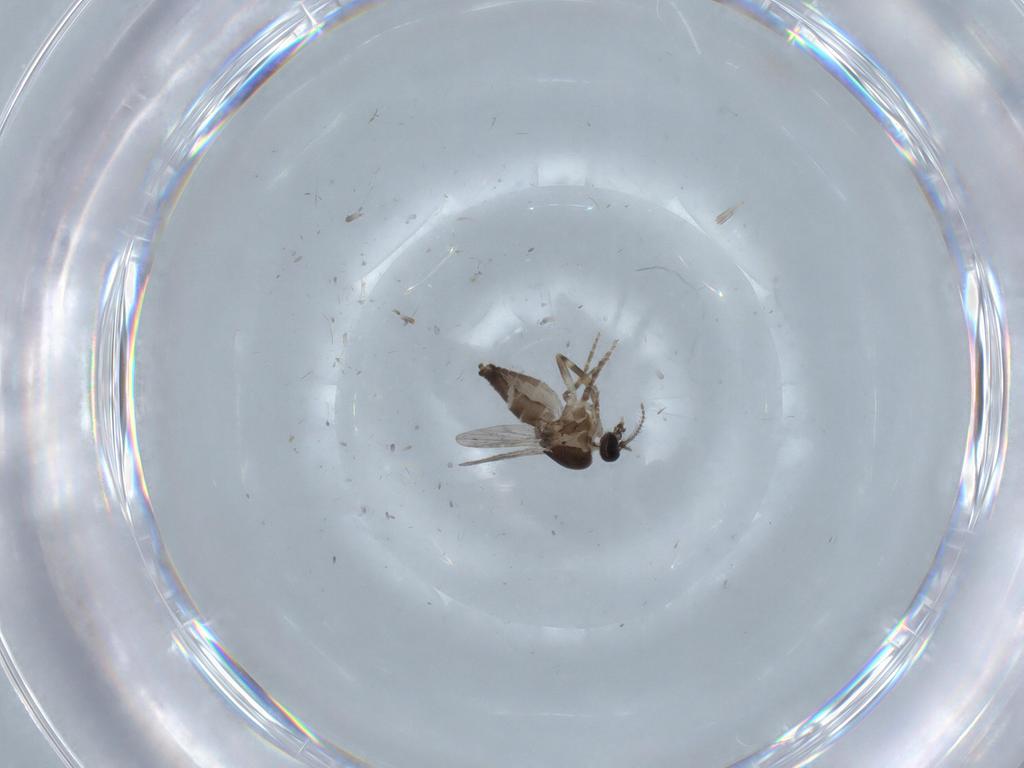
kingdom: Animalia
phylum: Arthropoda
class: Insecta
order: Diptera
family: Ceratopogonidae
